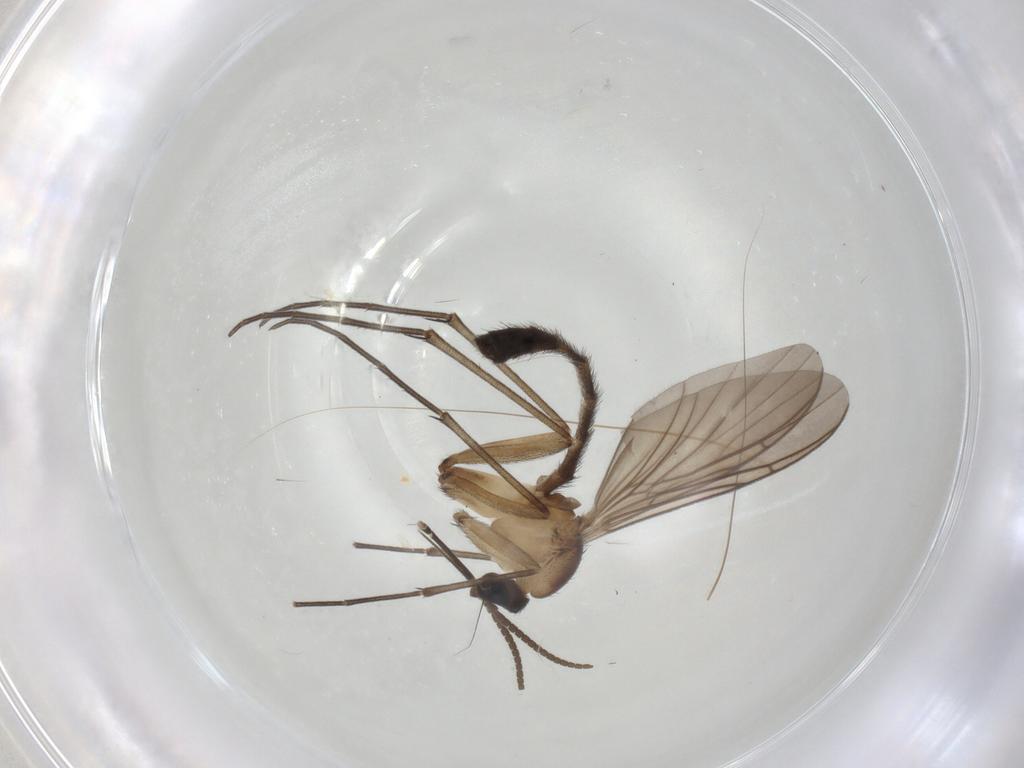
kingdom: Animalia
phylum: Arthropoda
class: Insecta
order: Diptera
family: Keroplatidae
